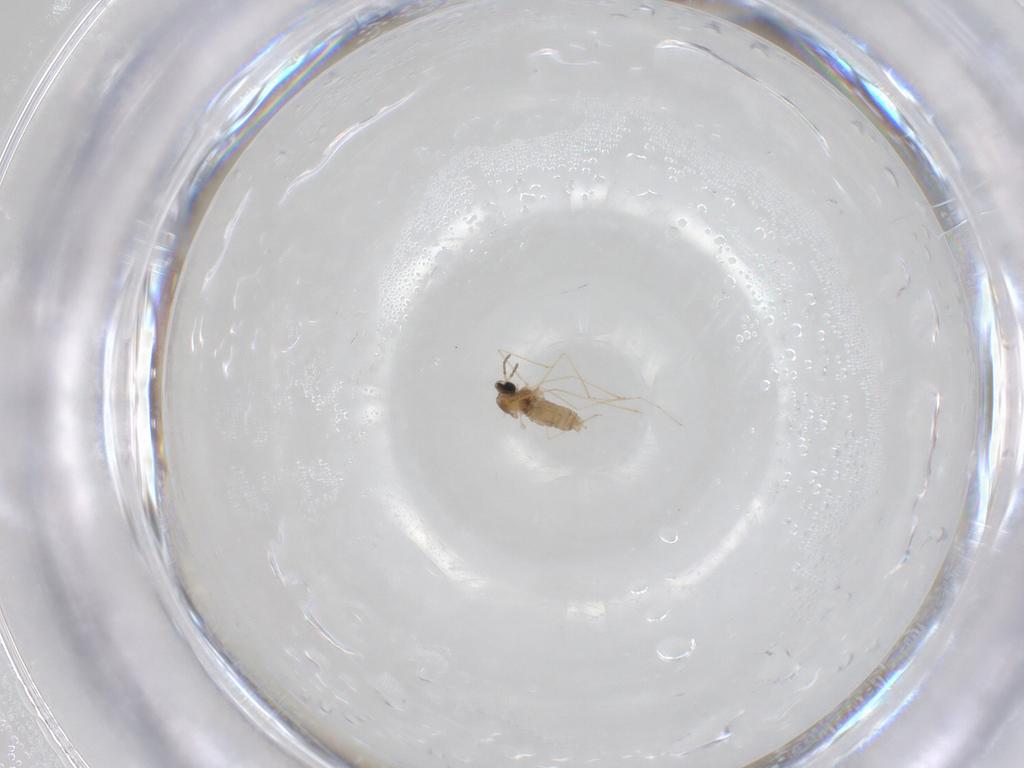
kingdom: Animalia
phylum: Arthropoda
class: Insecta
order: Diptera
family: Cecidomyiidae
